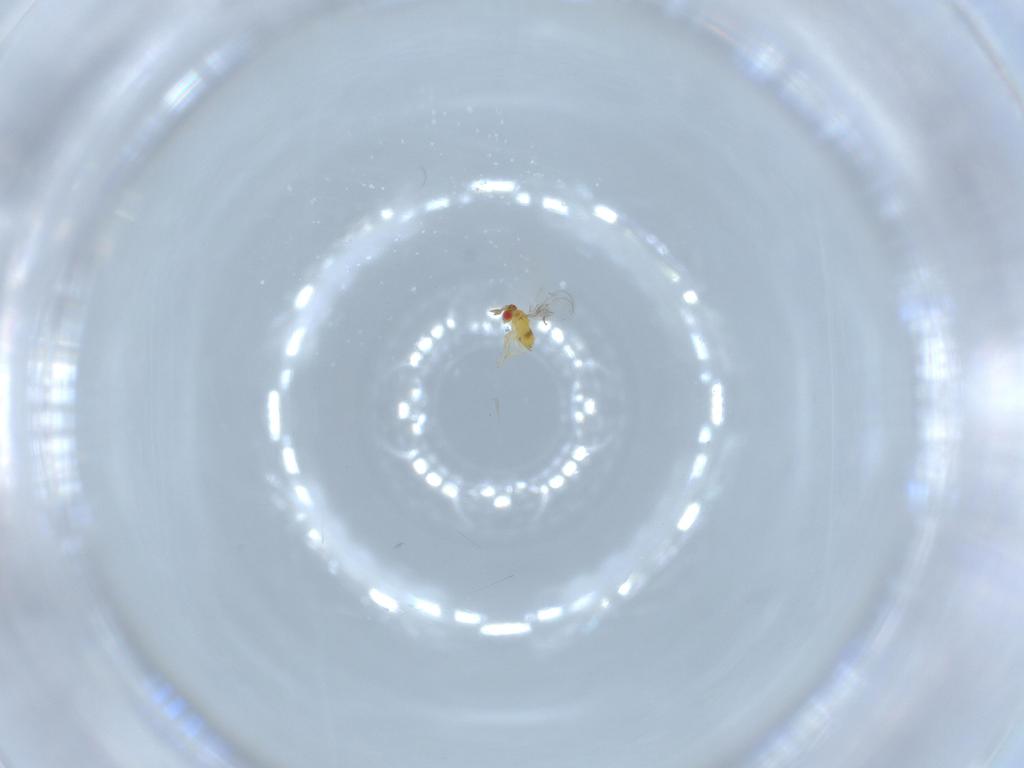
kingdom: Animalia
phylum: Arthropoda
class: Insecta
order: Hymenoptera
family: Trichogrammatidae
